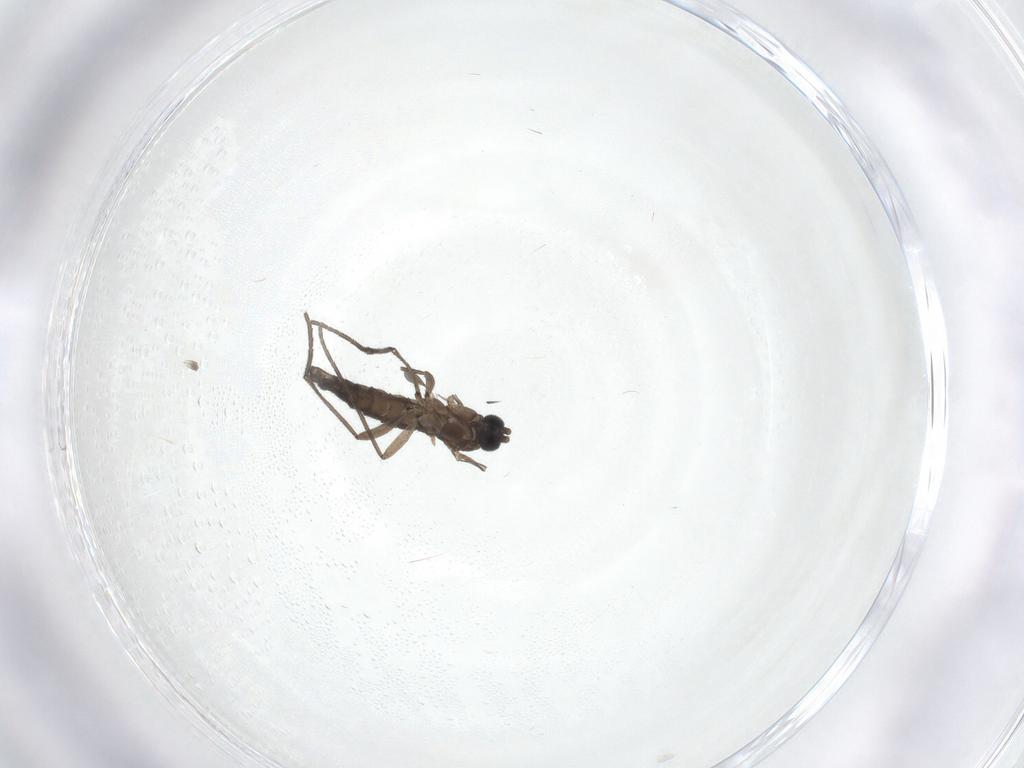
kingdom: Animalia
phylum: Arthropoda
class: Insecta
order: Diptera
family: Sciaridae
